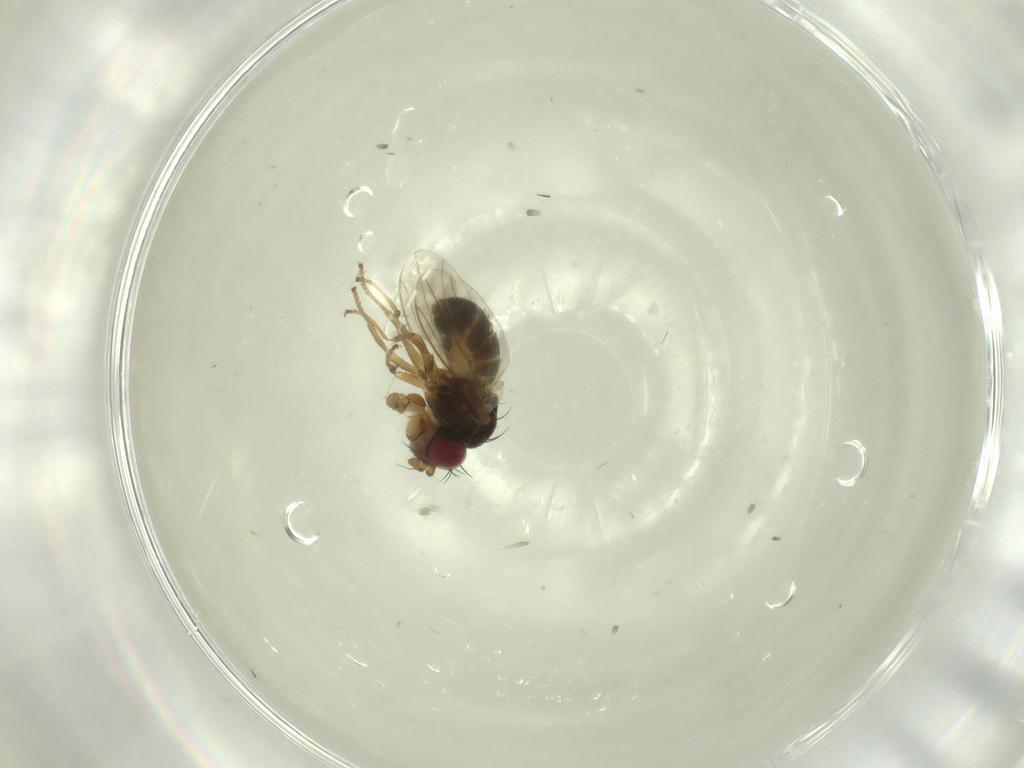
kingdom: Animalia
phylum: Arthropoda
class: Insecta
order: Diptera
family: Ephydridae
